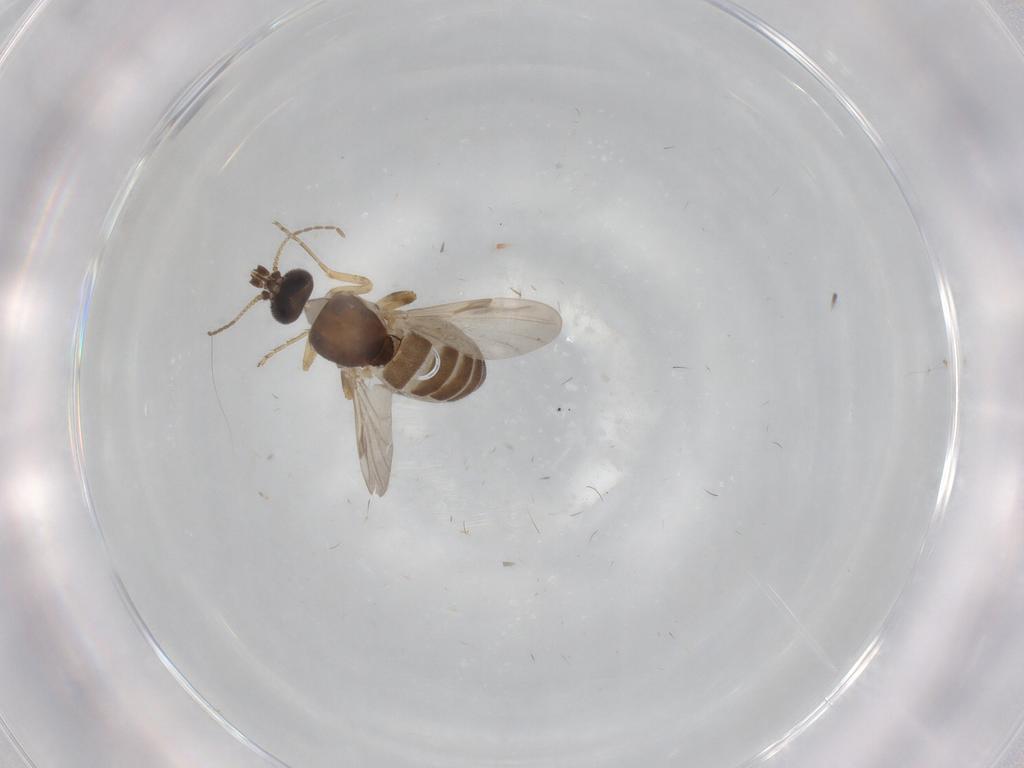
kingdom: Animalia
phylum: Arthropoda
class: Insecta
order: Diptera
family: Ceratopogonidae
